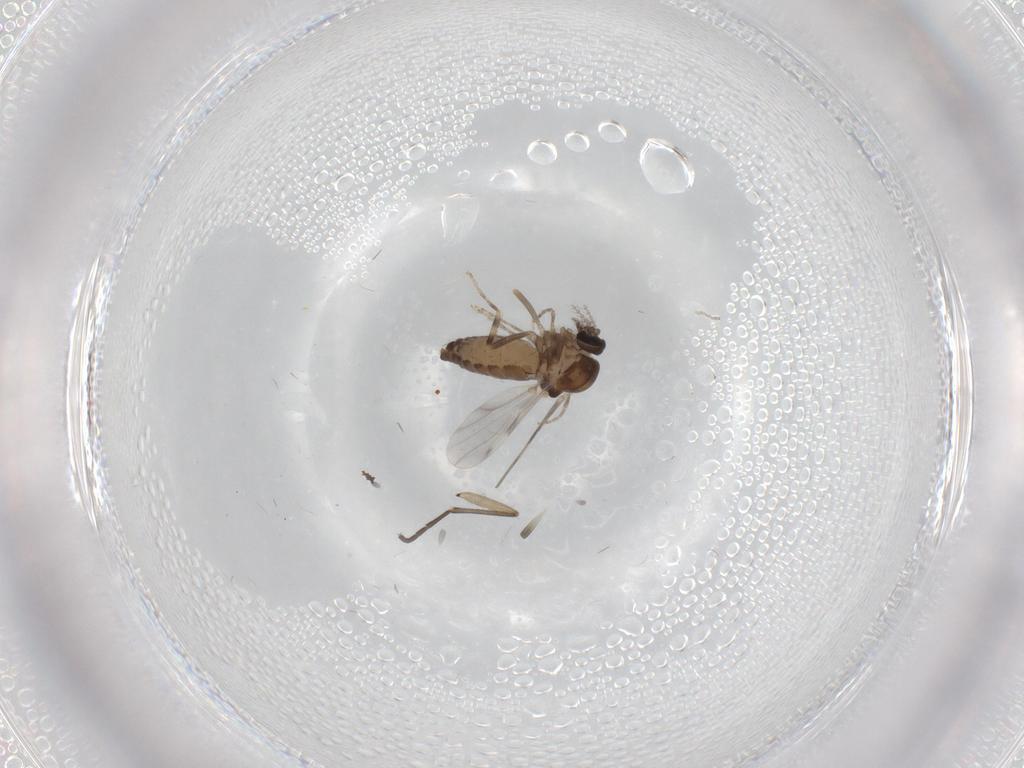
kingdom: Animalia
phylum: Arthropoda
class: Insecta
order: Diptera
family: Ceratopogonidae
